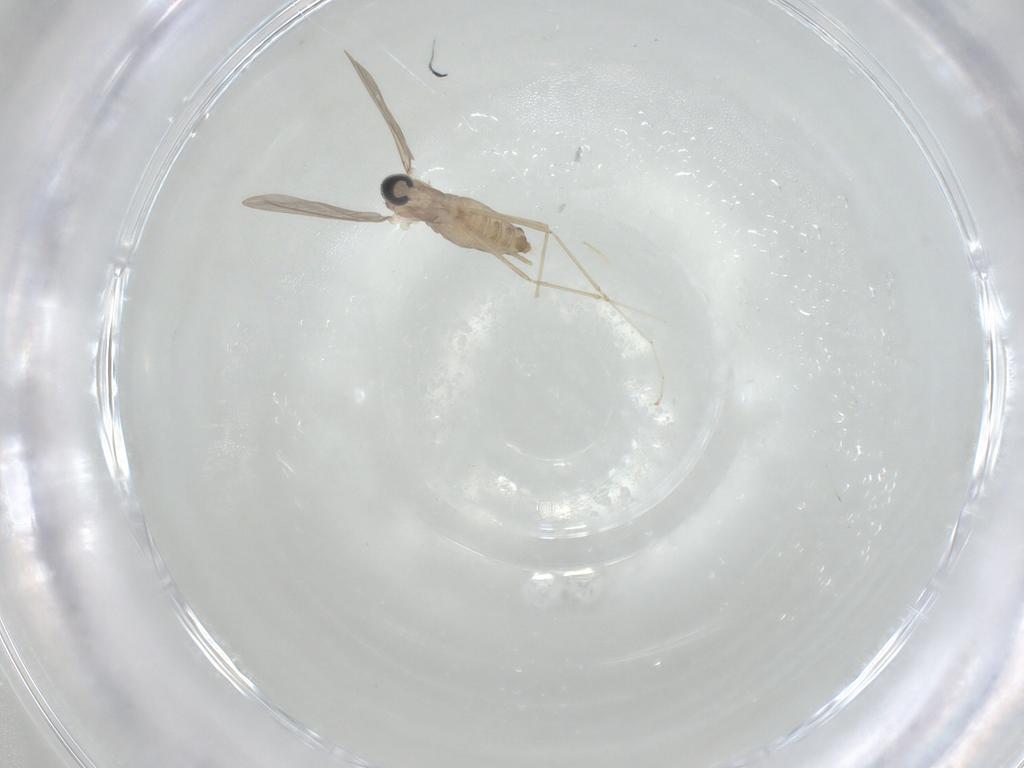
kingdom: Animalia
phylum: Arthropoda
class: Insecta
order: Diptera
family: Cecidomyiidae
